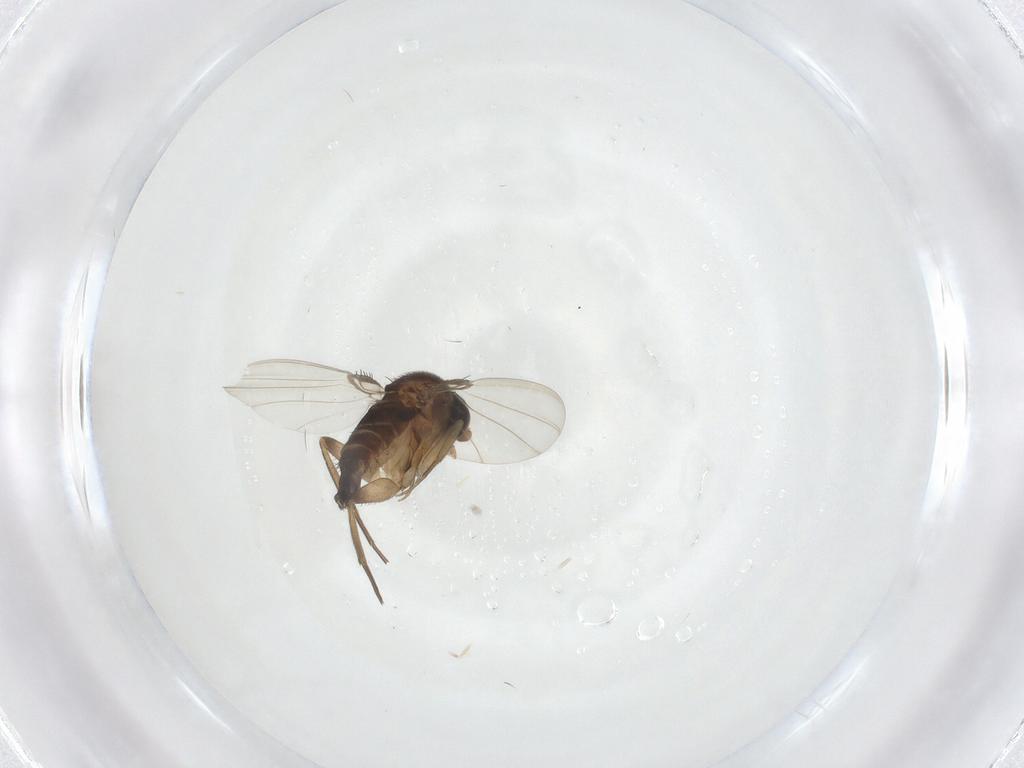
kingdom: Animalia
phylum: Arthropoda
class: Insecta
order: Diptera
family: Phoridae
